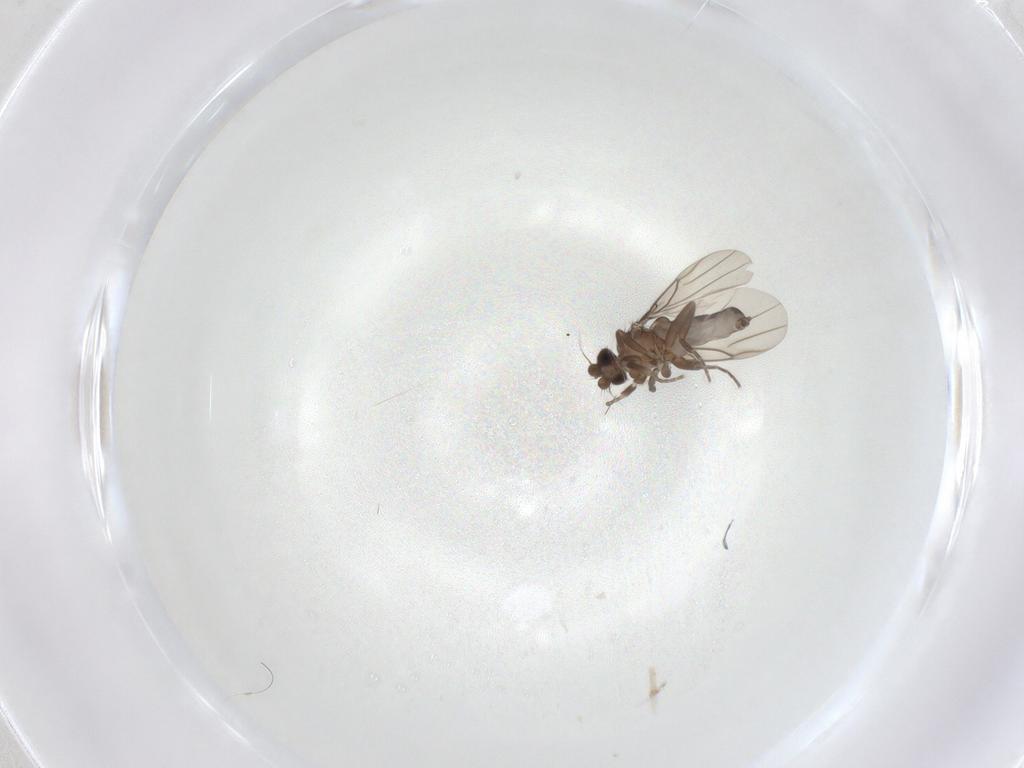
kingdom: Animalia
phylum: Arthropoda
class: Insecta
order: Diptera
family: Phoridae
